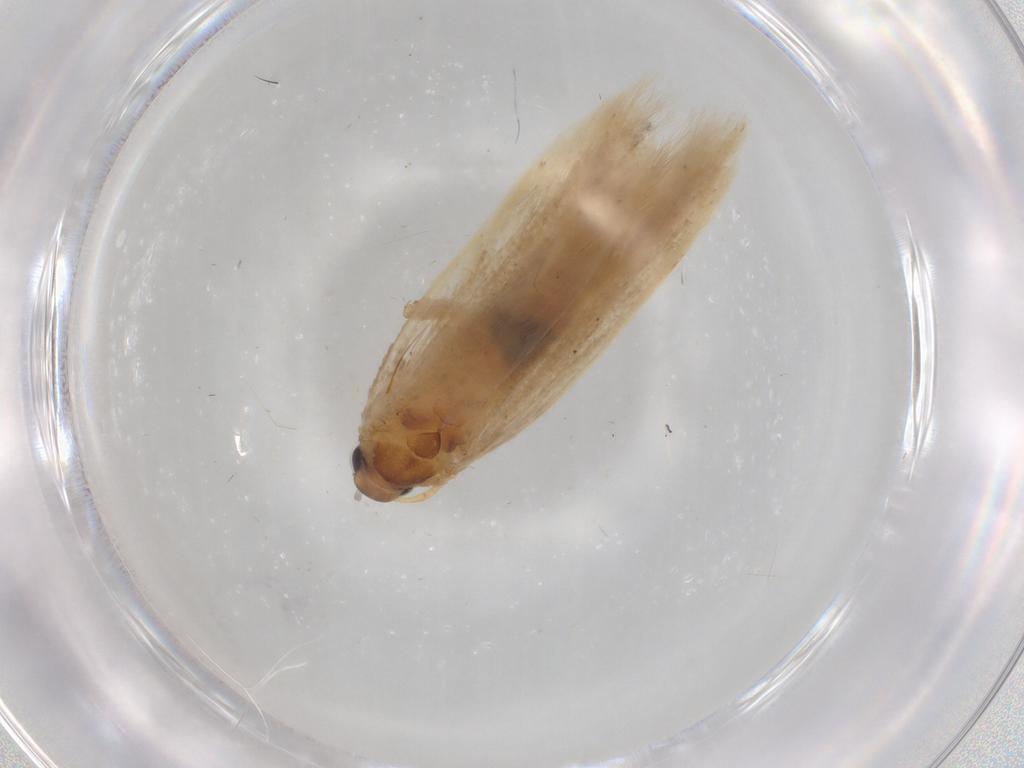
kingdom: Animalia
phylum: Arthropoda
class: Insecta
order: Lepidoptera
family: Gelechiidae
